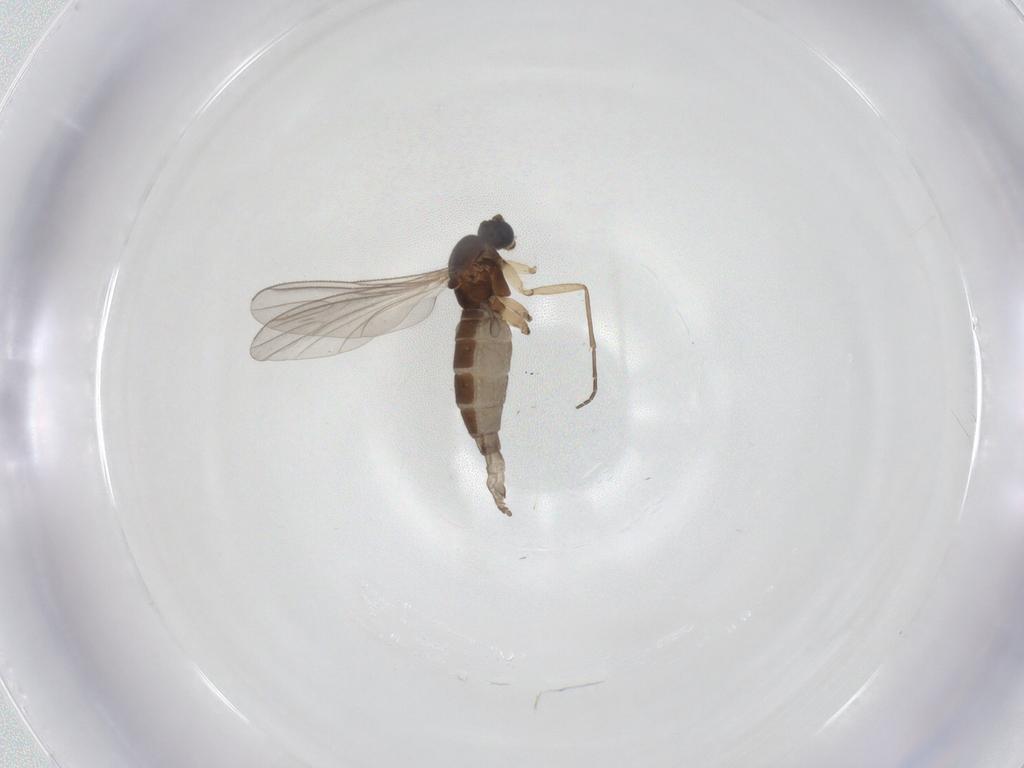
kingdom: Animalia
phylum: Arthropoda
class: Insecta
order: Diptera
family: Sciaridae
